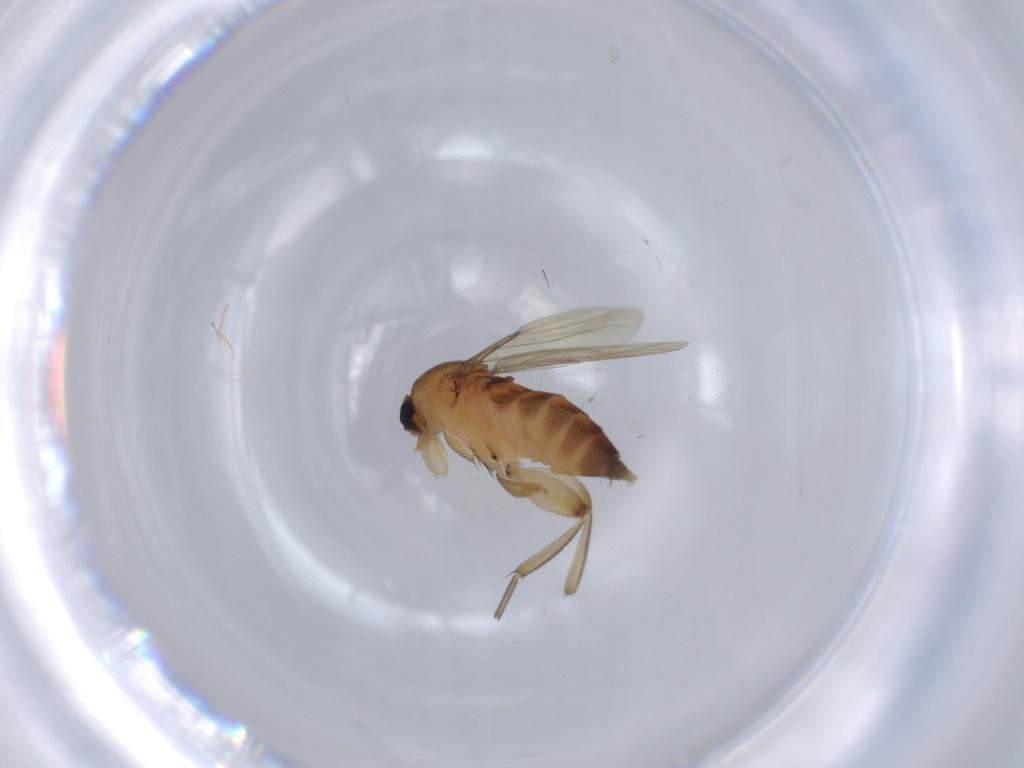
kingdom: Animalia
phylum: Arthropoda
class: Insecta
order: Diptera
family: Phoridae
